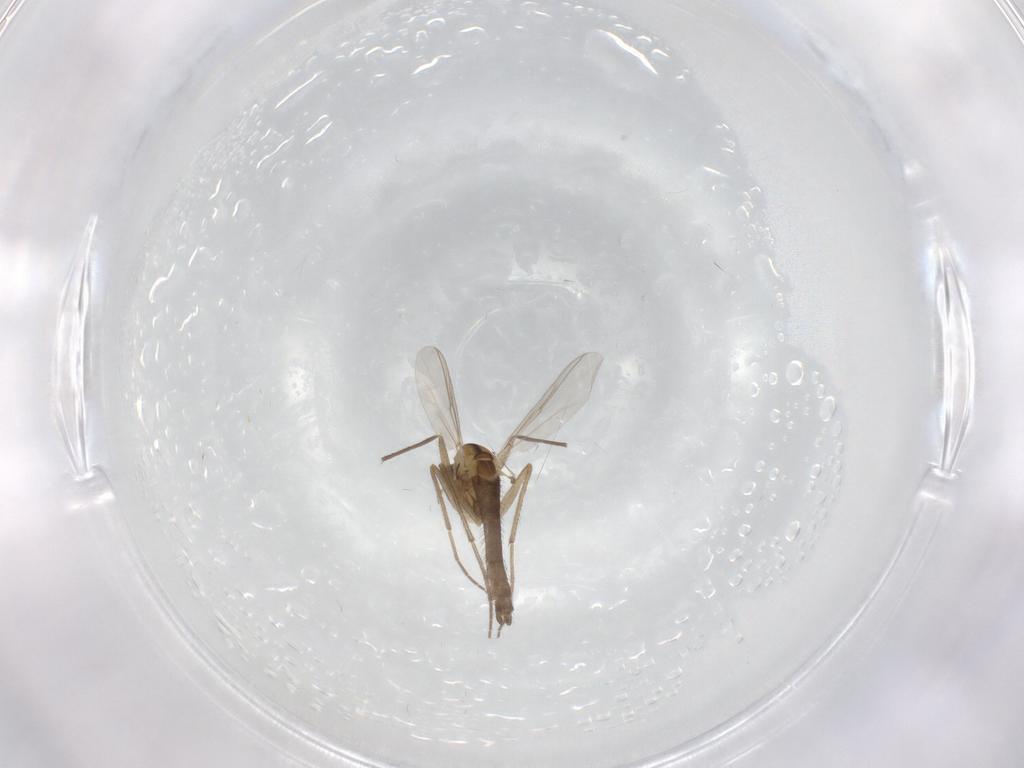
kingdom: Animalia
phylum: Arthropoda
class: Insecta
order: Diptera
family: Chironomidae
